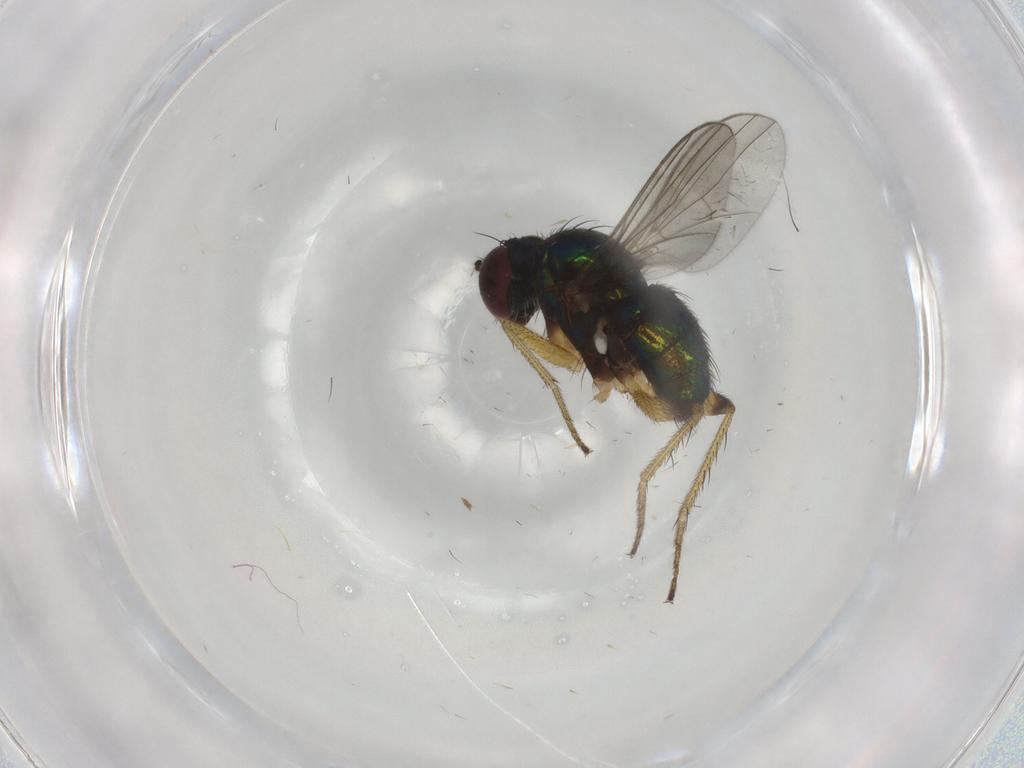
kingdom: Animalia
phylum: Arthropoda
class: Insecta
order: Diptera
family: Dolichopodidae
